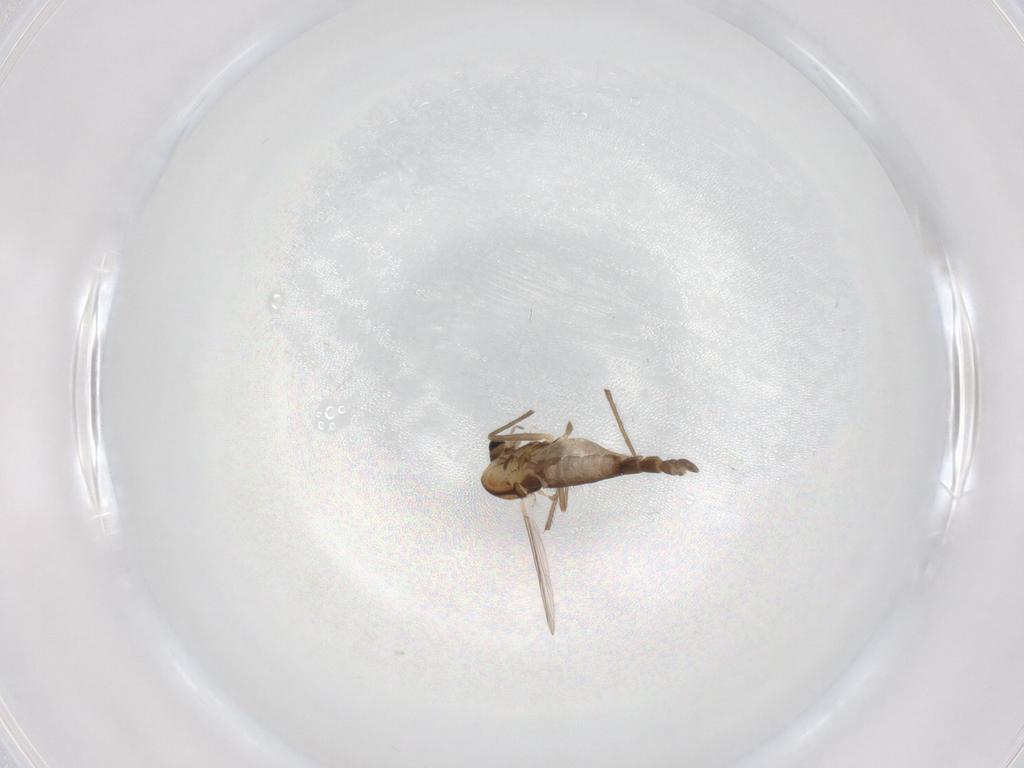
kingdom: Animalia
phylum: Arthropoda
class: Insecta
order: Diptera
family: Chironomidae
